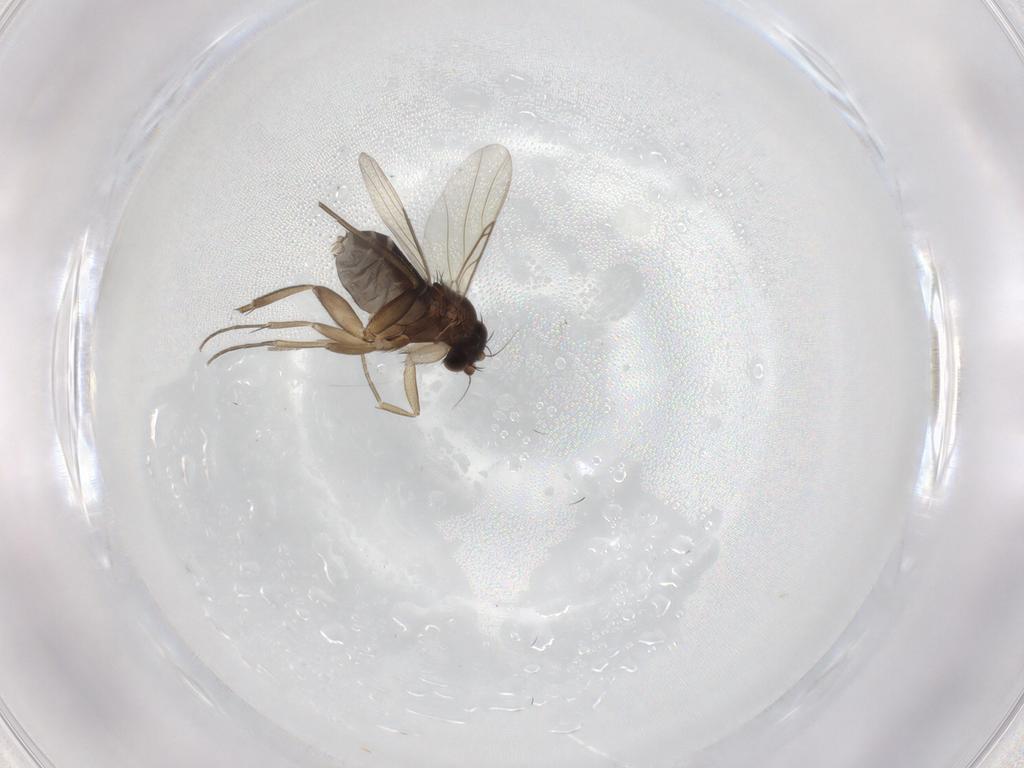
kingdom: Animalia
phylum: Arthropoda
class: Insecta
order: Diptera
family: Phoridae
